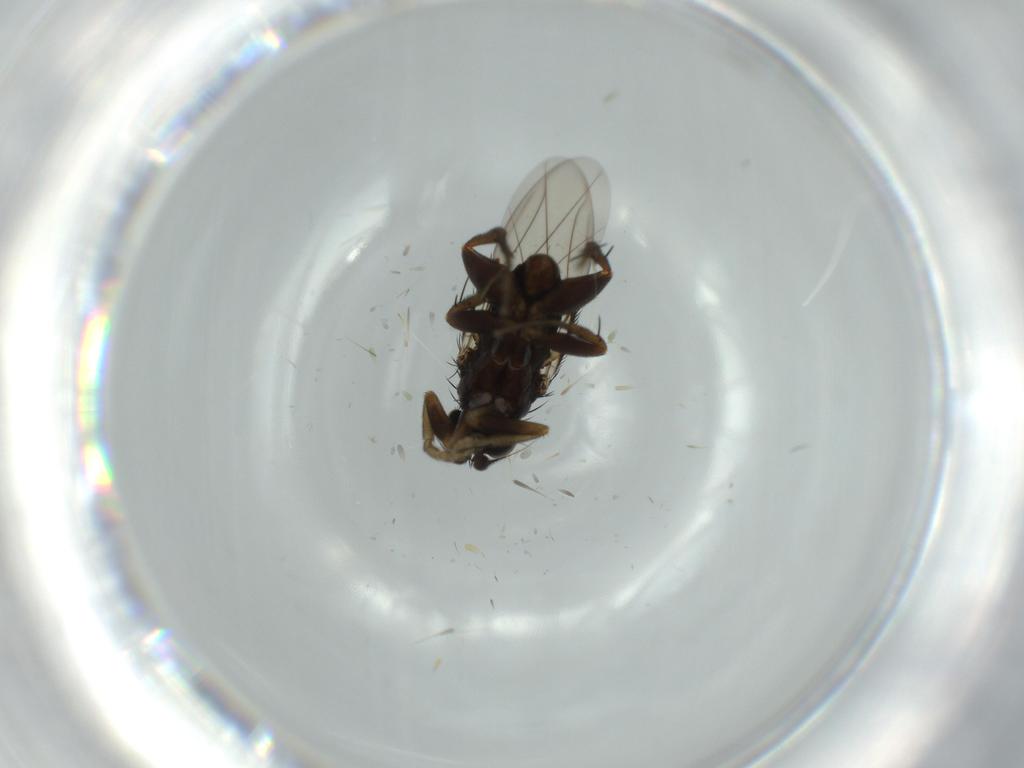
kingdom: Animalia
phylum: Arthropoda
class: Insecta
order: Diptera
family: Phoridae
